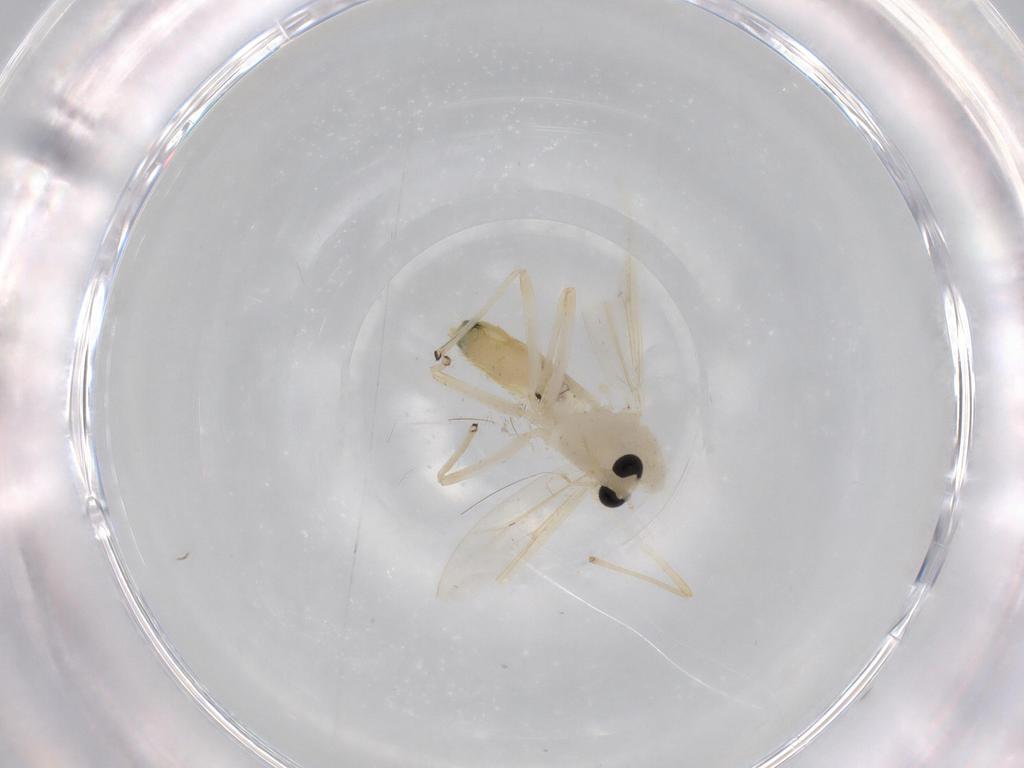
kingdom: Animalia
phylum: Arthropoda
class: Insecta
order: Diptera
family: Chironomidae
